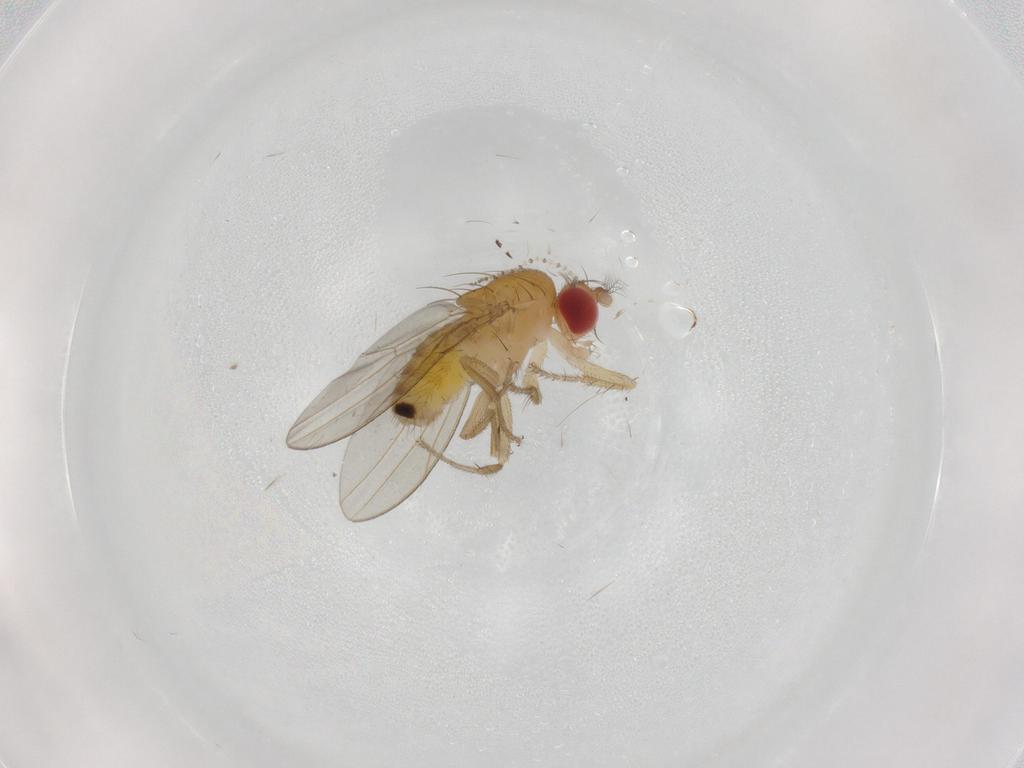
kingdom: Animalia
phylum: Arthropoda
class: Insecta
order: Diptera
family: Drosophilidae
